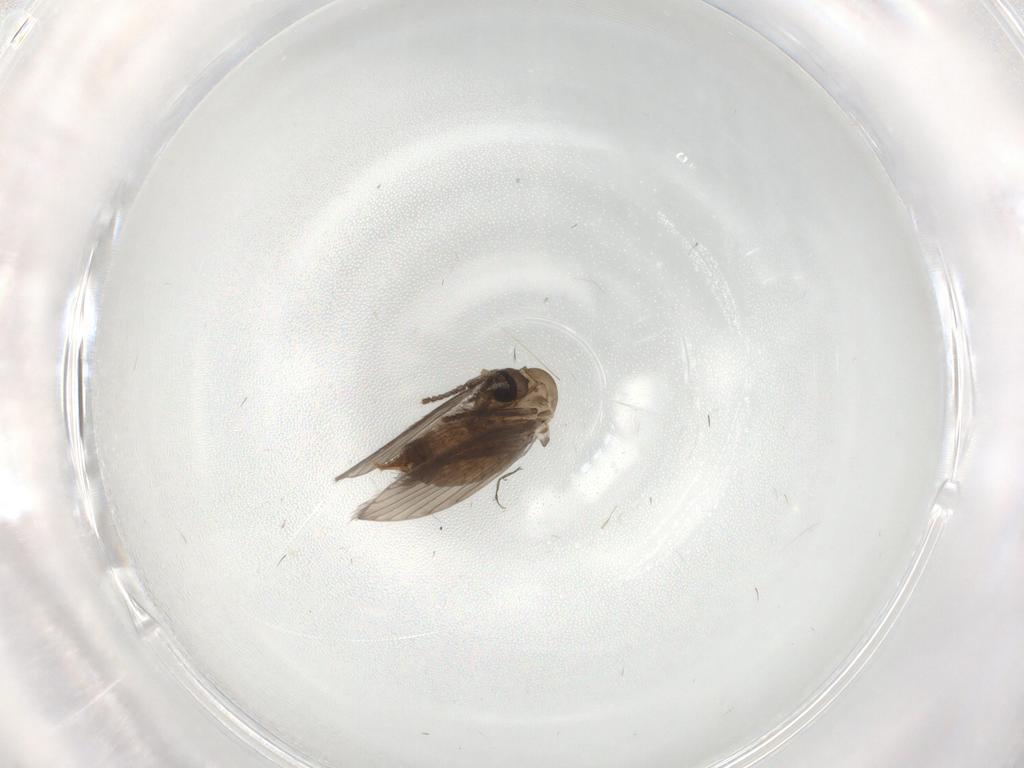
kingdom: Animalia
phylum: Arthropoda
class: Insecta
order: Diptera
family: Psychodidae
